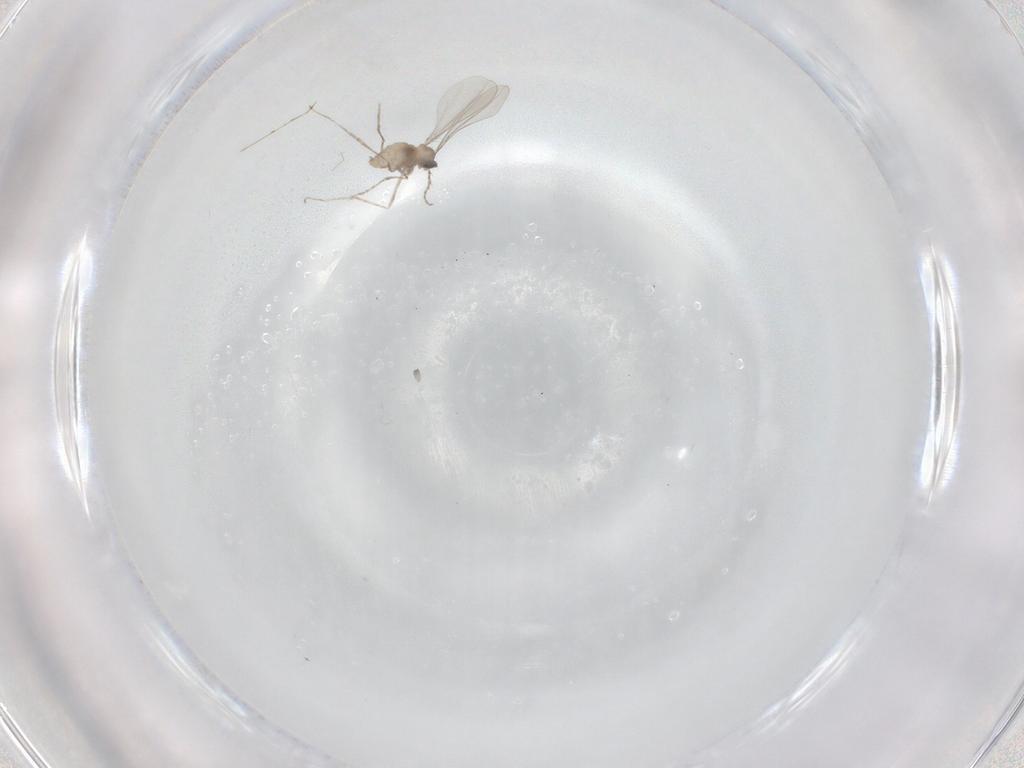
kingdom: Animalia
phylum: Arthropoda
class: Insecta
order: Diptera
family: Cecidomyiidae
